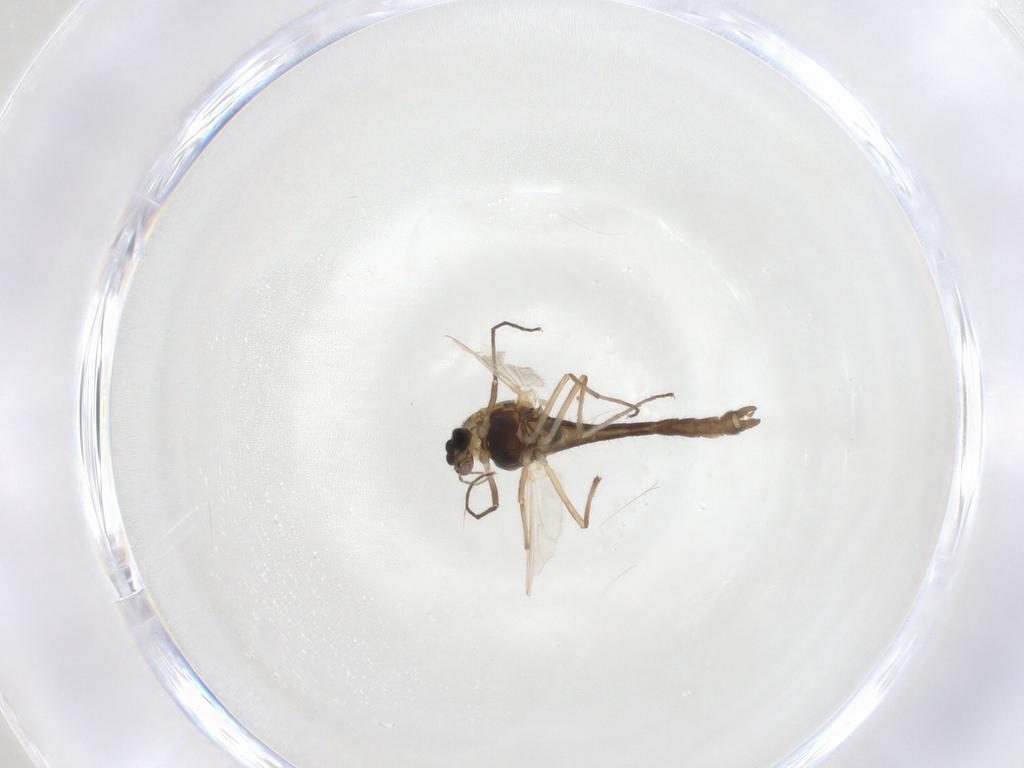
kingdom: Animalia
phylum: Arthropoda
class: Insecta
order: Diptera
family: Chironomidae
